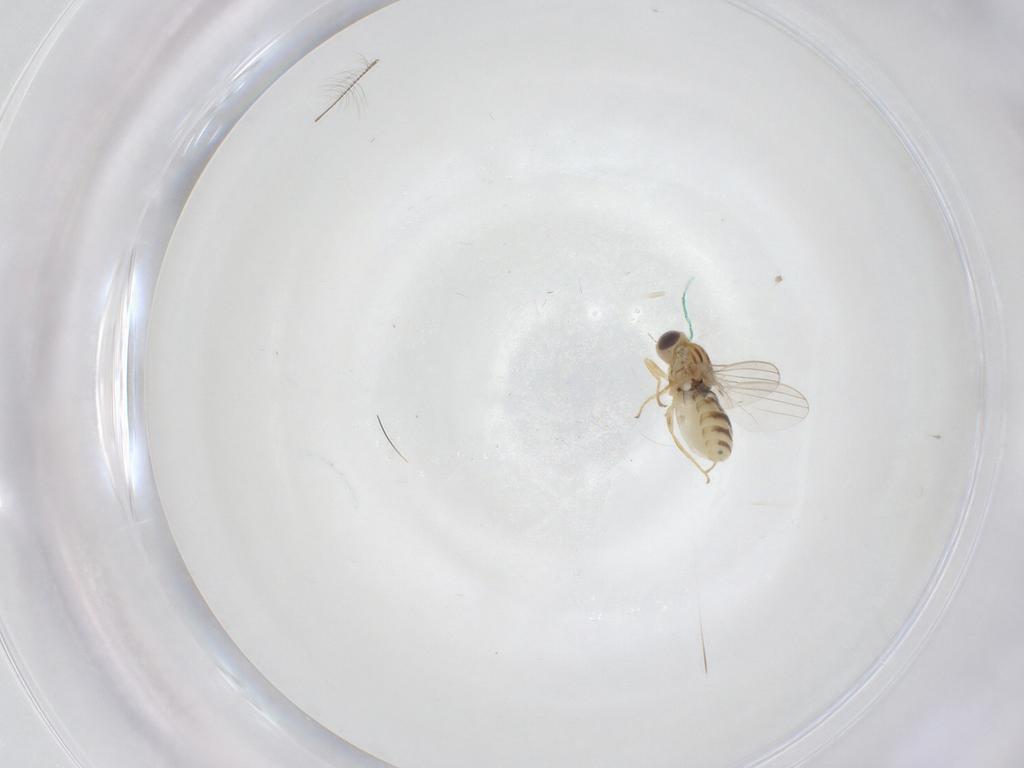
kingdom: Animalia
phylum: Arthropoda
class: Insecta
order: Diptera
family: Chyromyidae
